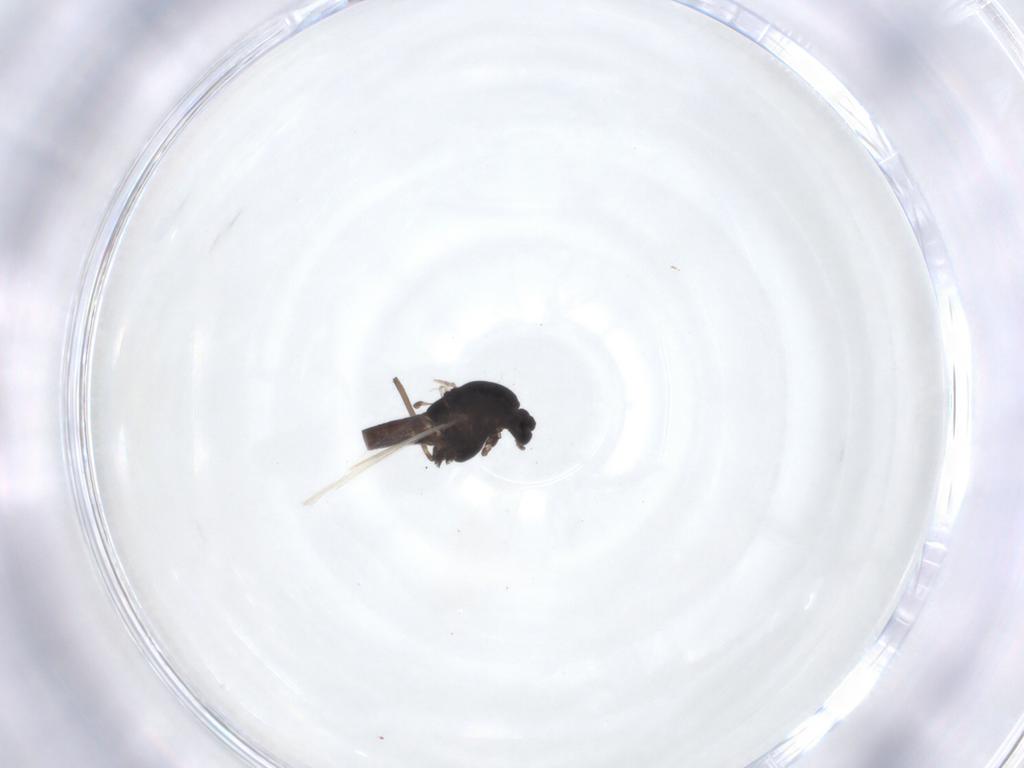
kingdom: Animalia
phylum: Arthropoda
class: Insecta
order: Diptera
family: Chironomidae
